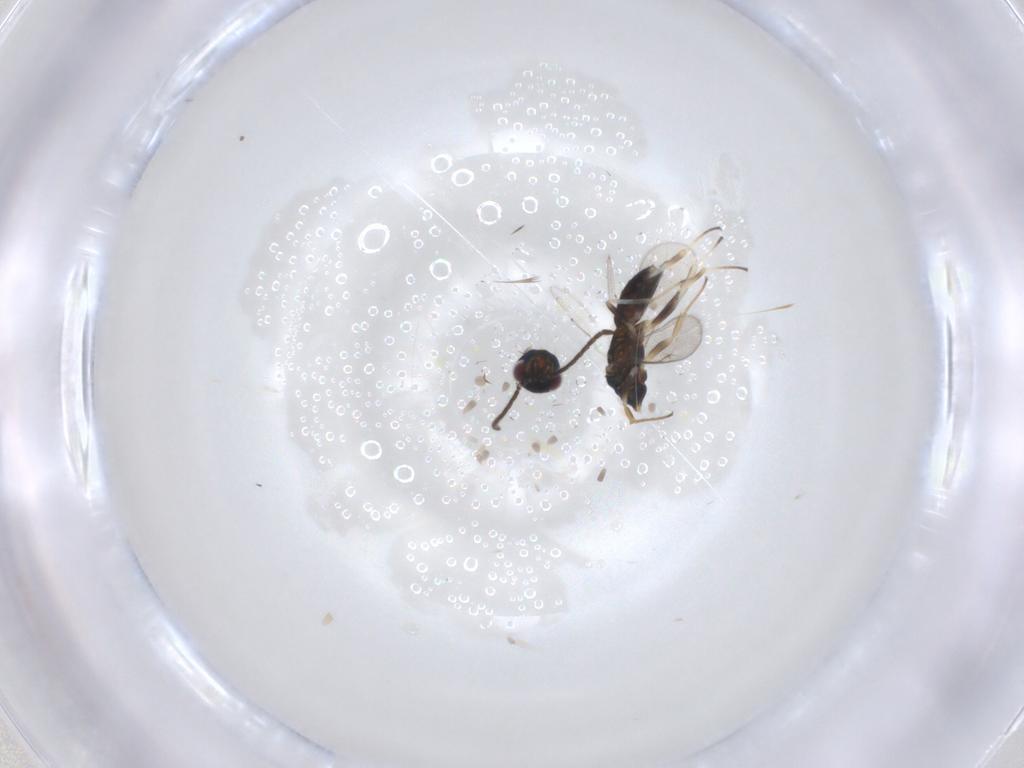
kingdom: Animalia
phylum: Arthropoda
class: Insecta
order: Hymenoptera
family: Pteromalidae
